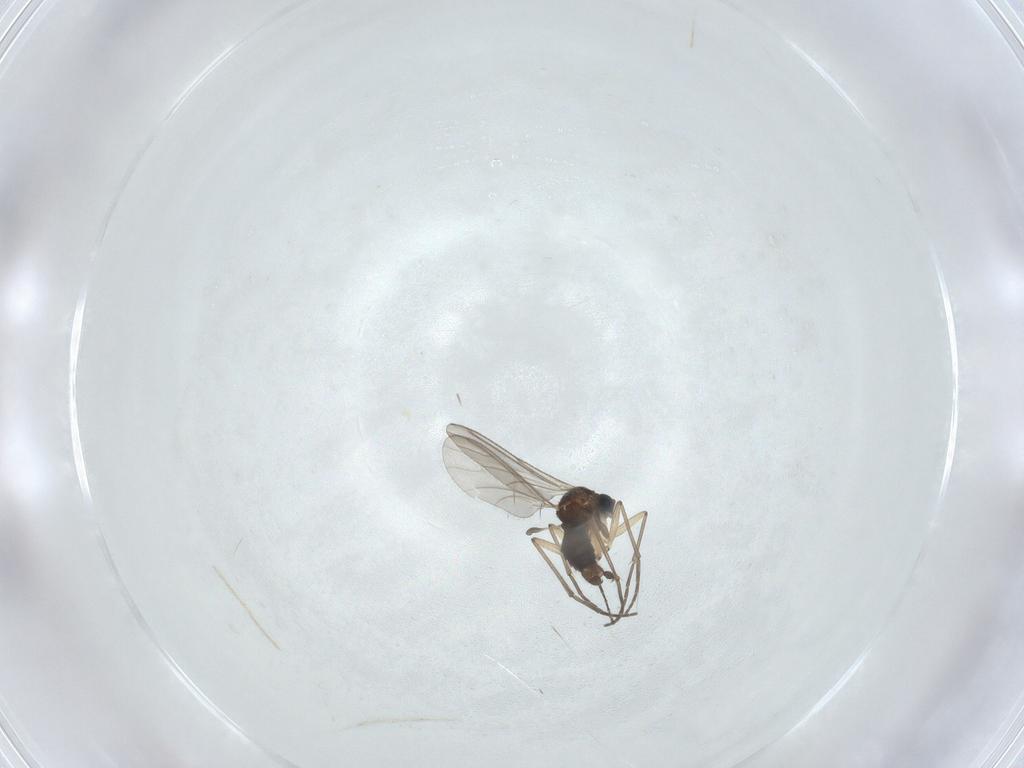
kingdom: Animalia
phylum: Arthropoda
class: Insecta
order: Diptera
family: Sciaridae
